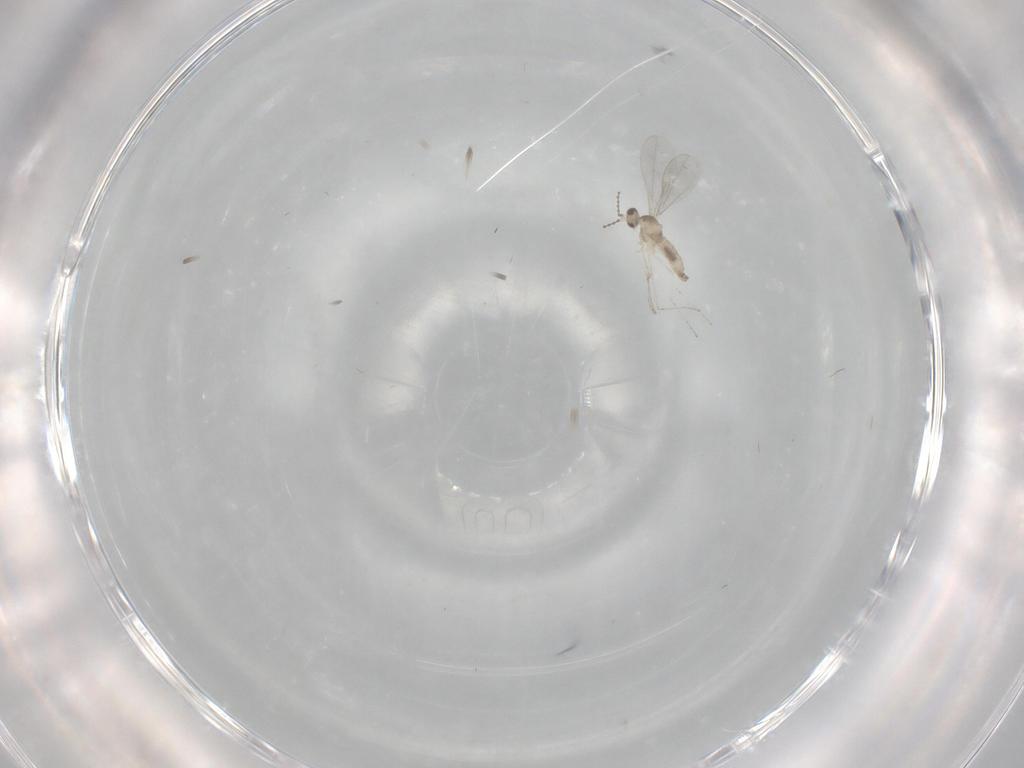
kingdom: Animalia
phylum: Arthropoda
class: Insecta
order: Diptera
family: Cecidomyiidae
